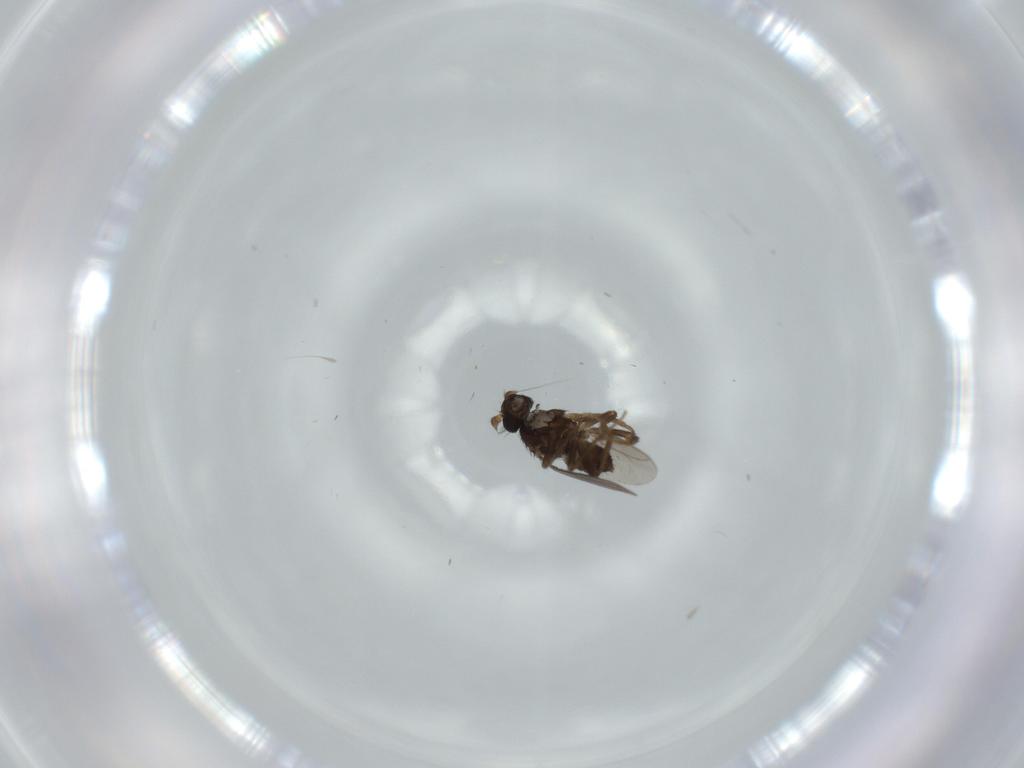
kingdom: Animalia
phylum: Arthropoda
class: Insecta
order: Diptera
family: Sphaeroceridae
